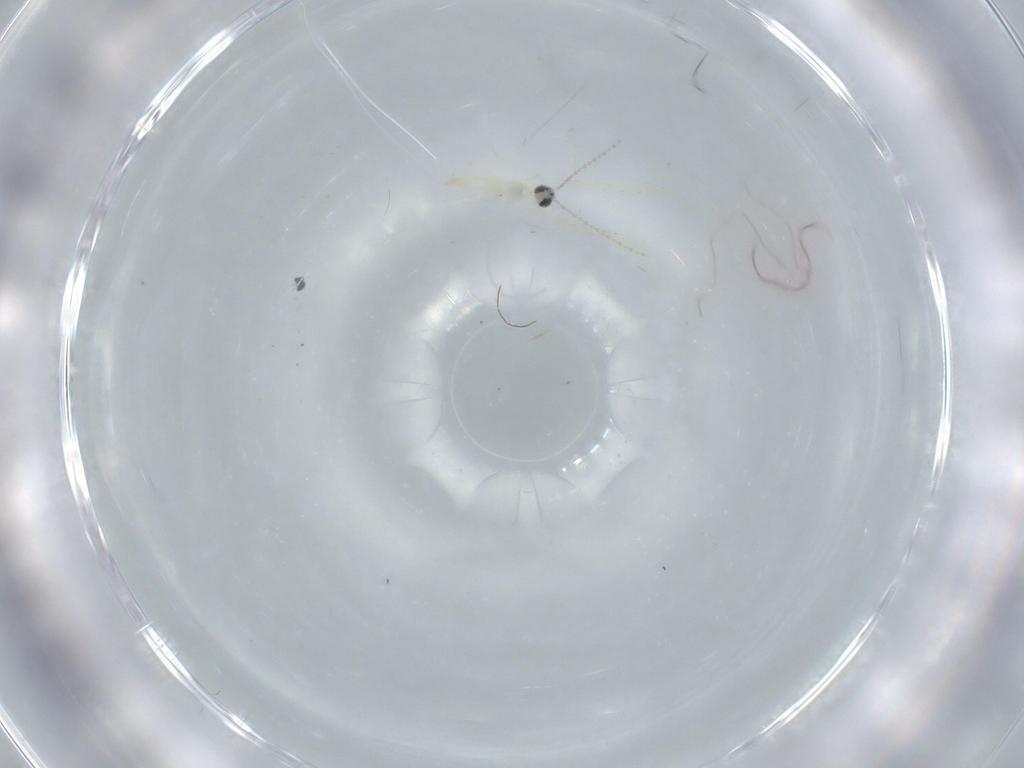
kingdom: Animalia
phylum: Arthropoda
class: Insecta
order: Diptera
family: Cecidomyiidae
